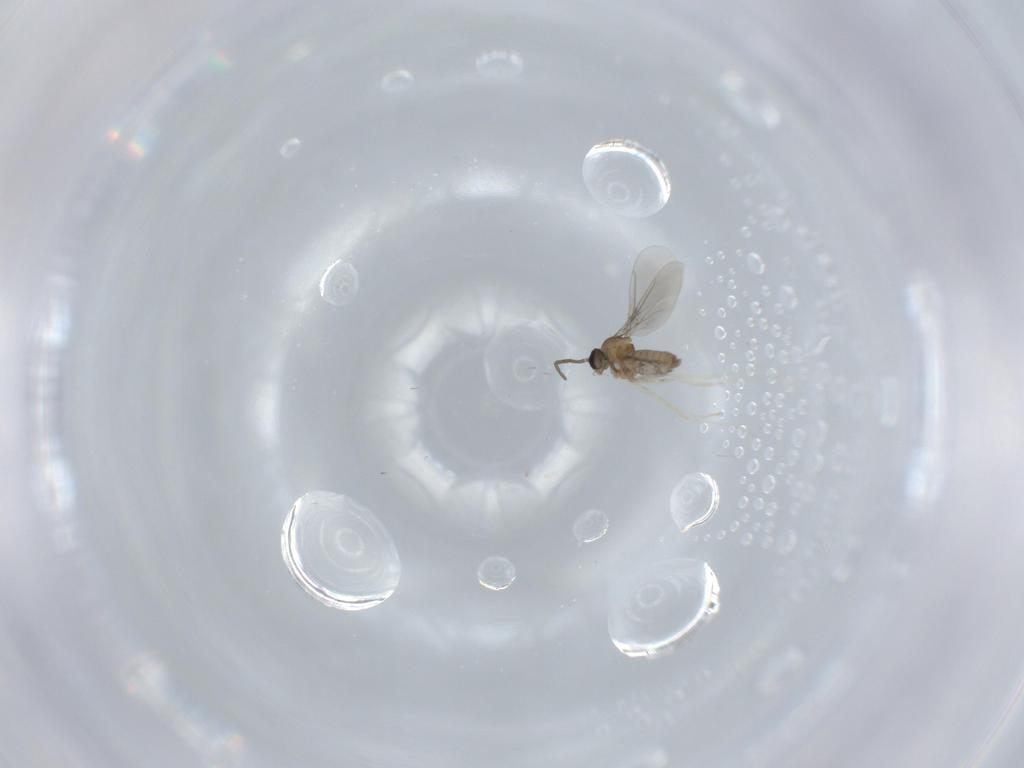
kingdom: Animalia
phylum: Arthropoda
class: Insecta
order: Diptera
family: Cecidomyiidae
